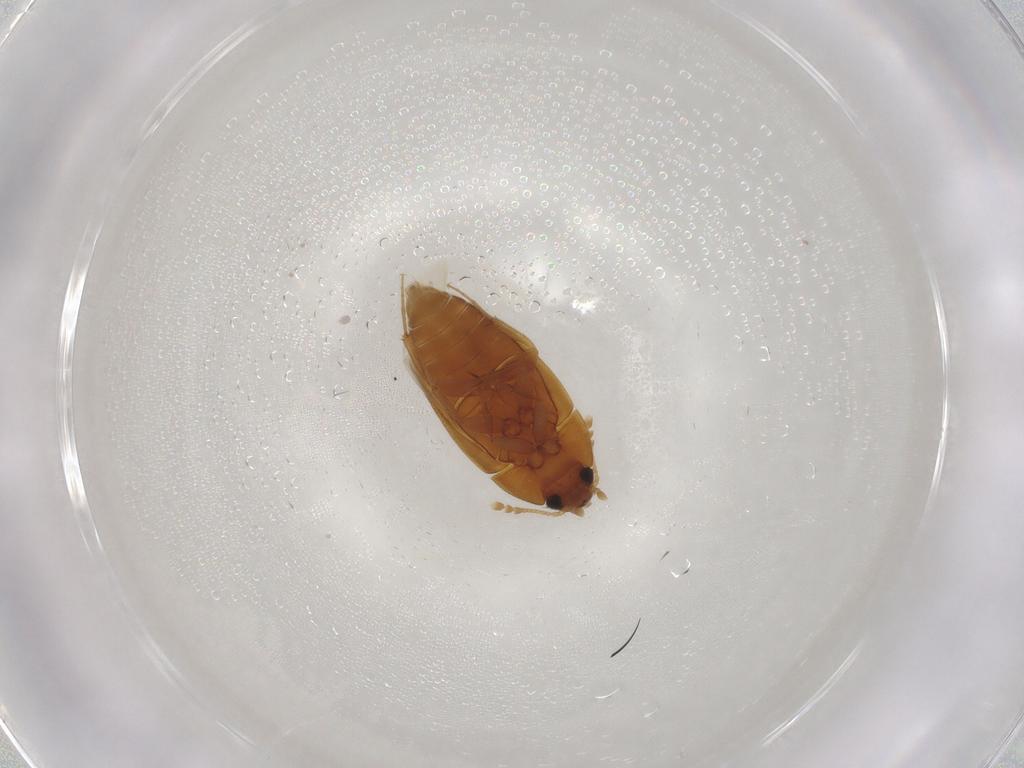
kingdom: Animalia
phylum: Arthropoda
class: Insecta
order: Coleoptera
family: Mycetophagidae
